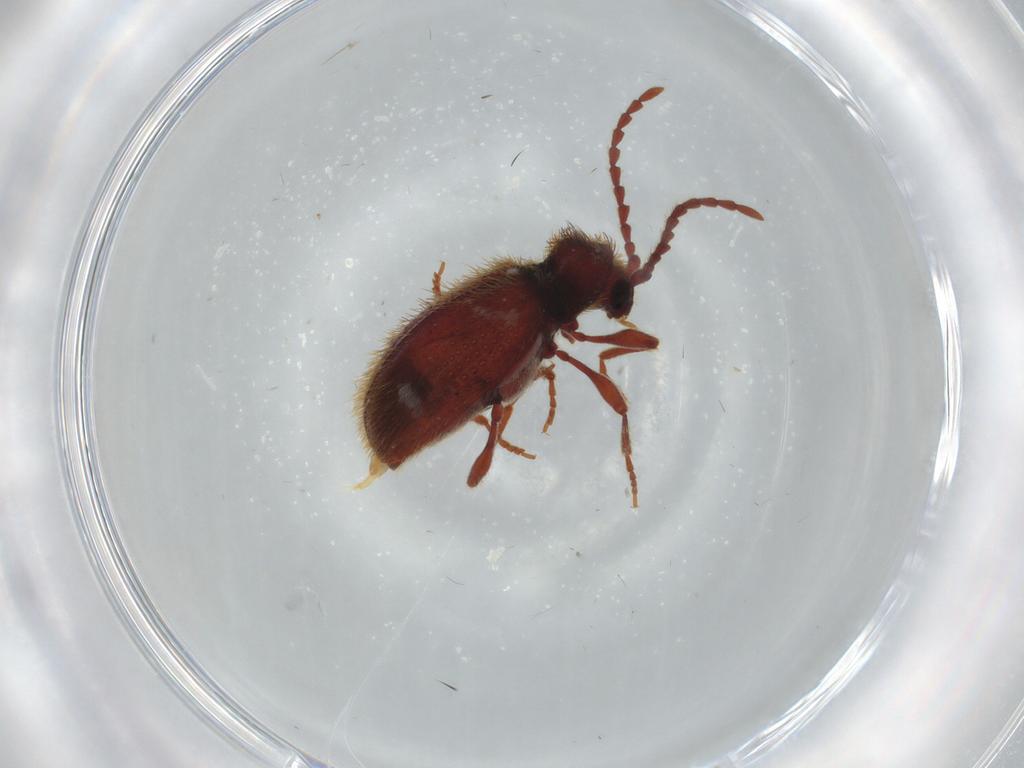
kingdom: Animalia
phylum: Arthropoda
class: Insecta
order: Coleoptera
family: Ptinidae
